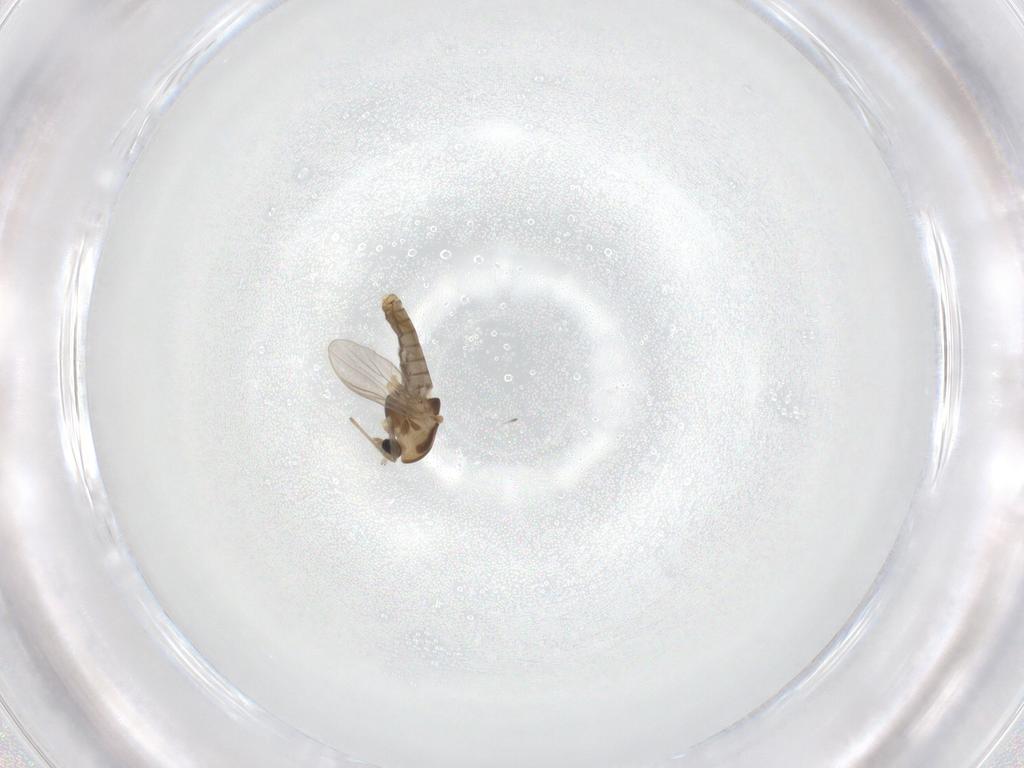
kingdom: Animalia
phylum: Arthropoda
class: Insecta
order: Diptera
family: Chironomidae
